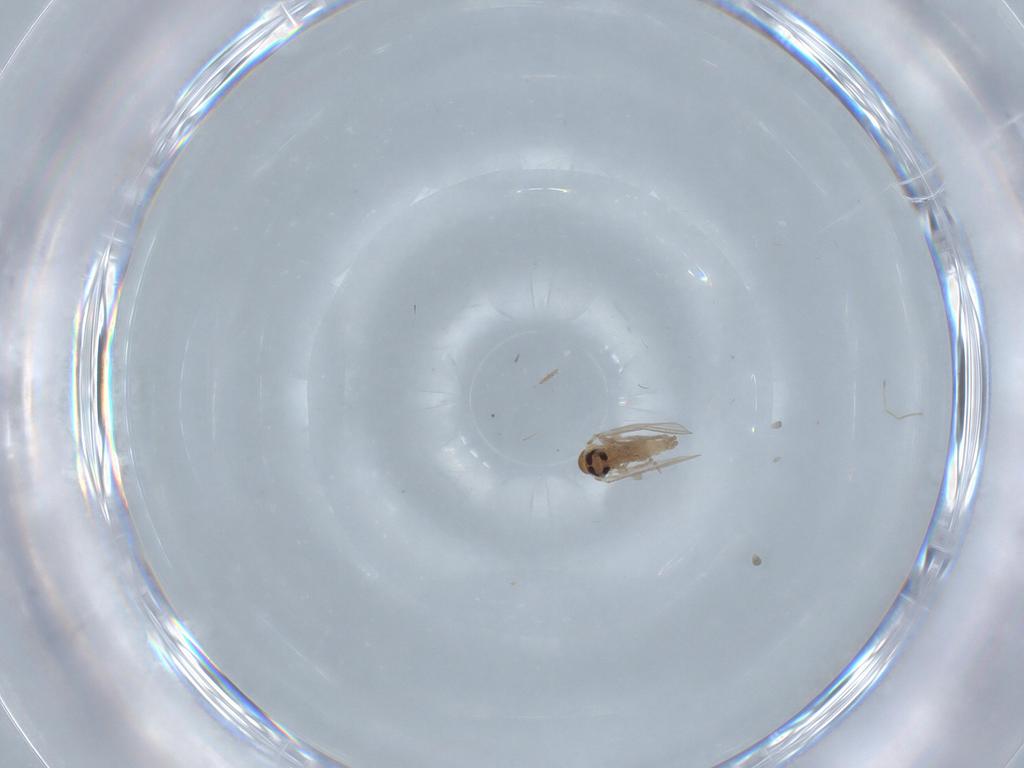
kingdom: Animalia
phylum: Arthropoda
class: Insecta
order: Diptera
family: Psychodidae
